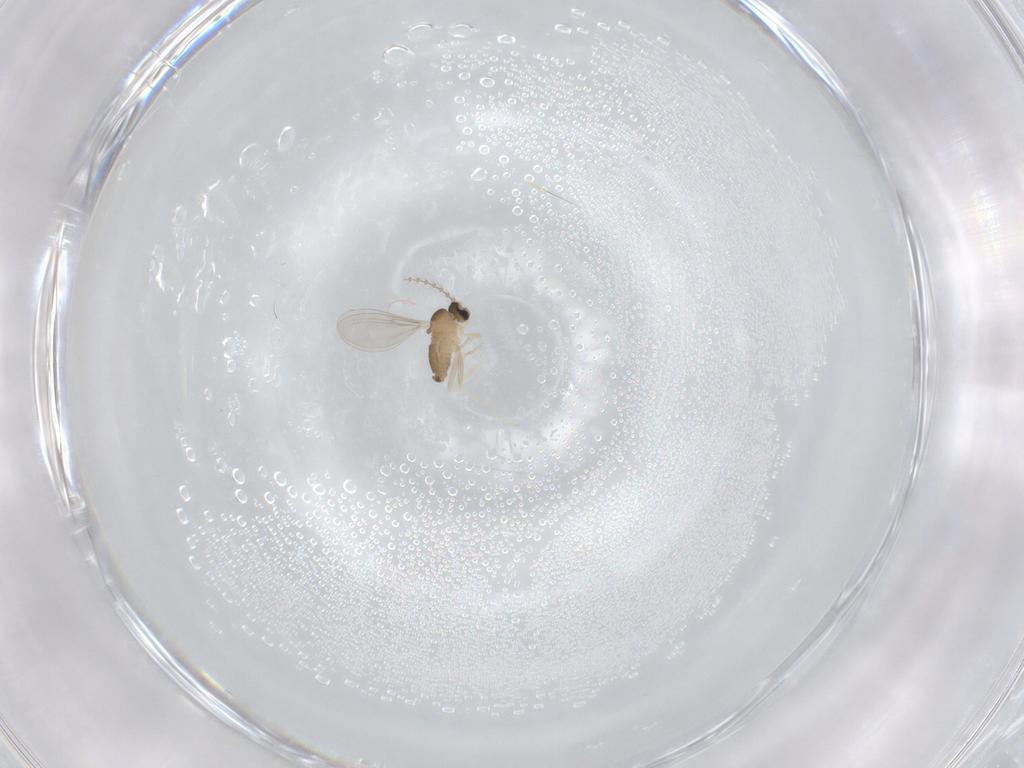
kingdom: Animalia
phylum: Arthropoda
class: Insecta
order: Diptera
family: Cecidomyiidae
